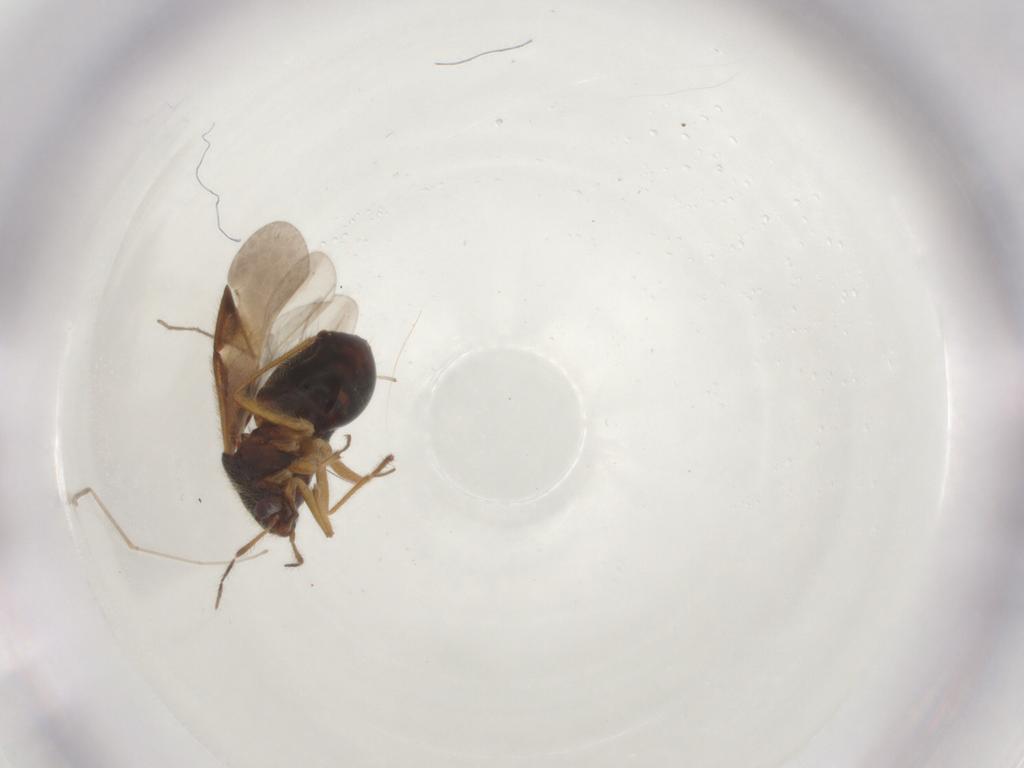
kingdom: Animalia
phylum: Arthropoda
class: Insecta
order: Hemiptera
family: Anthocoridae
